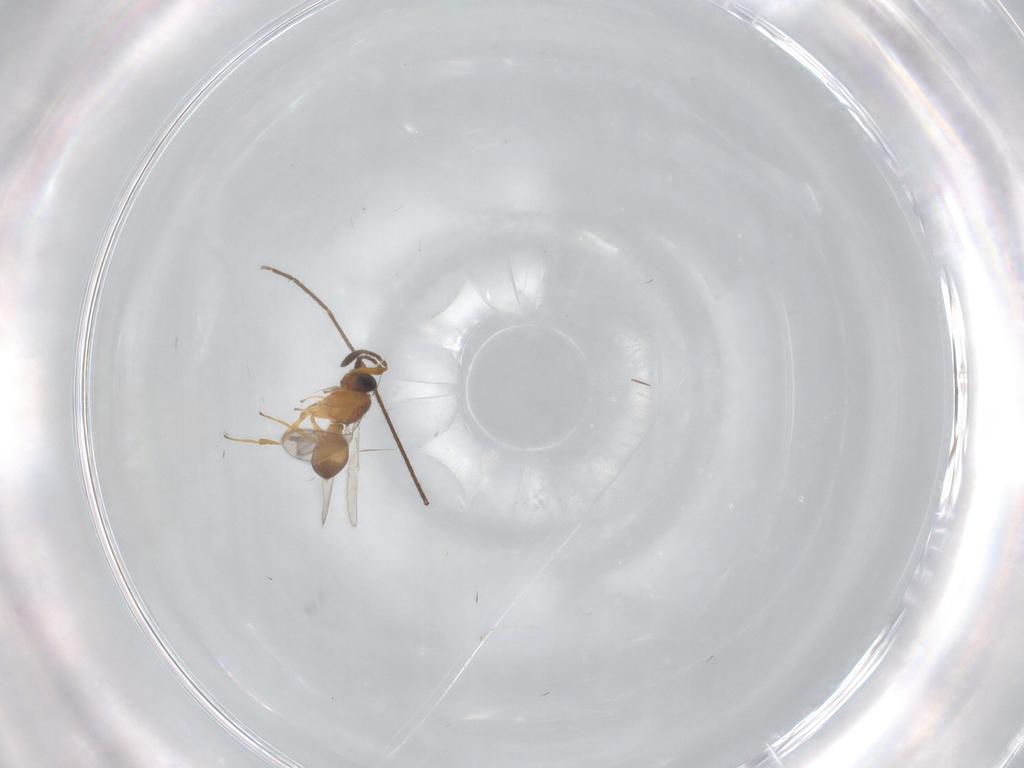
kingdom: Animalia
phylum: Arthropoda
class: Insecta
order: Hymenoptera
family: Scelionidae
